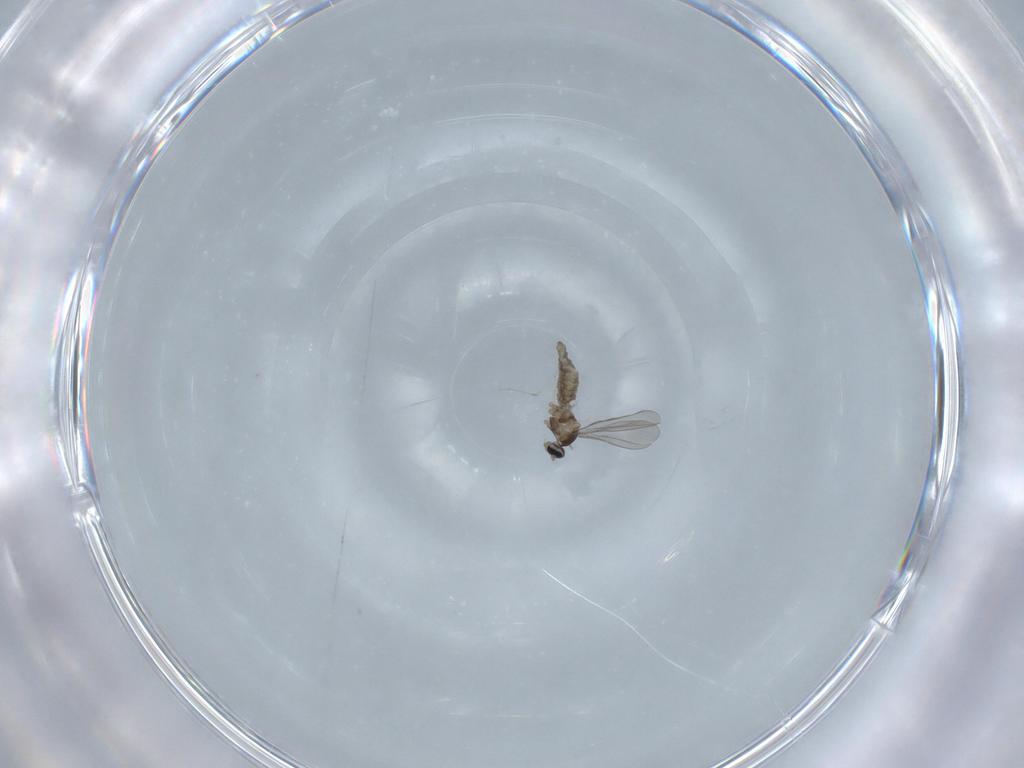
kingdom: Animalia
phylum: Arthropoda
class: Insecta
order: Diptera
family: Cecidomyiidae
